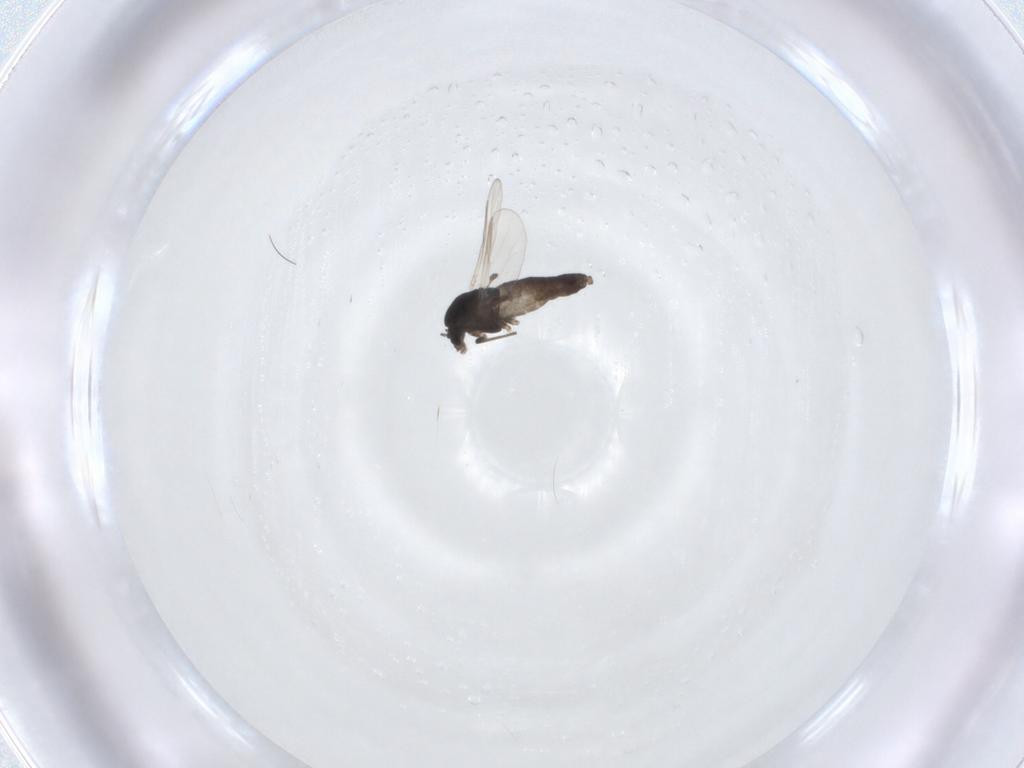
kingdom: Animalia
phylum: Arthropoda
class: Insecta
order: Diptera
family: Chironomidae
